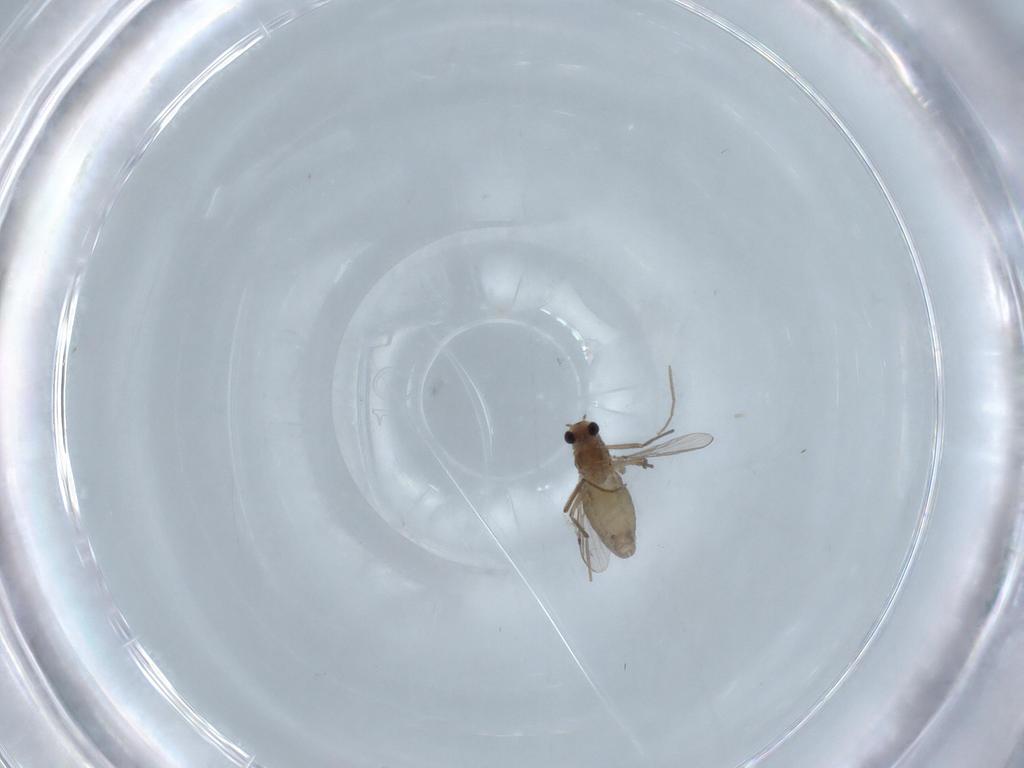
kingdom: Animalia
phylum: Arthropoda
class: Insecta
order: Diptera
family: Chironomidae
